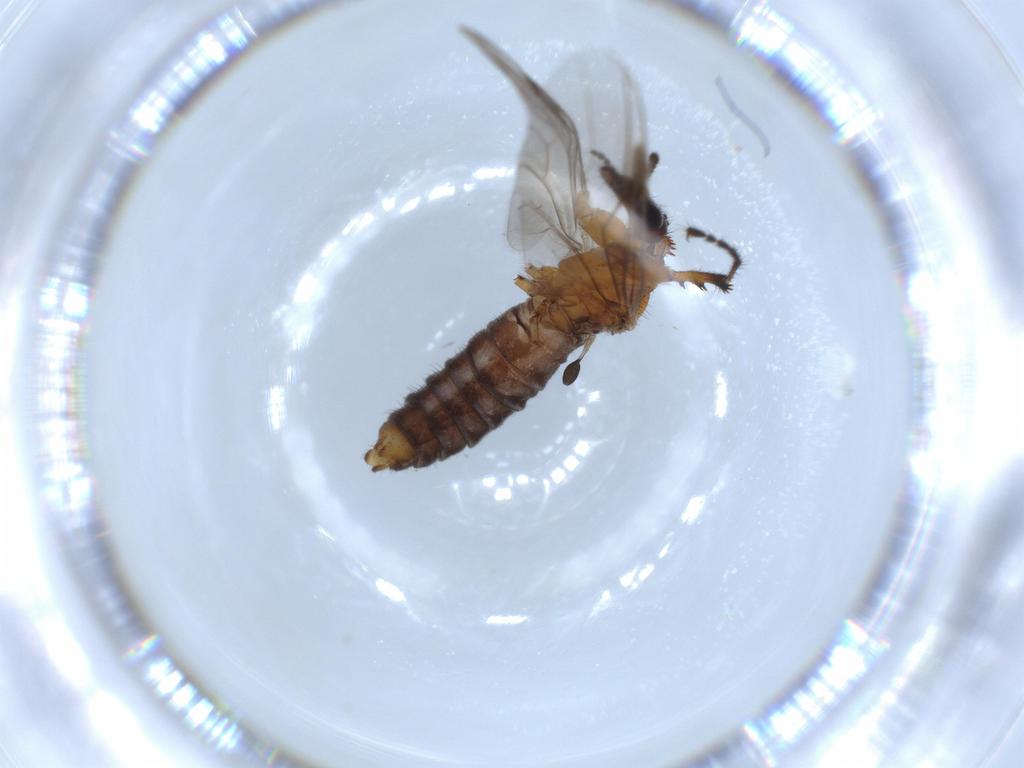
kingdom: Animalia
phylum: Arthropoda
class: Insecta
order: Diptera
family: Bibionidae
